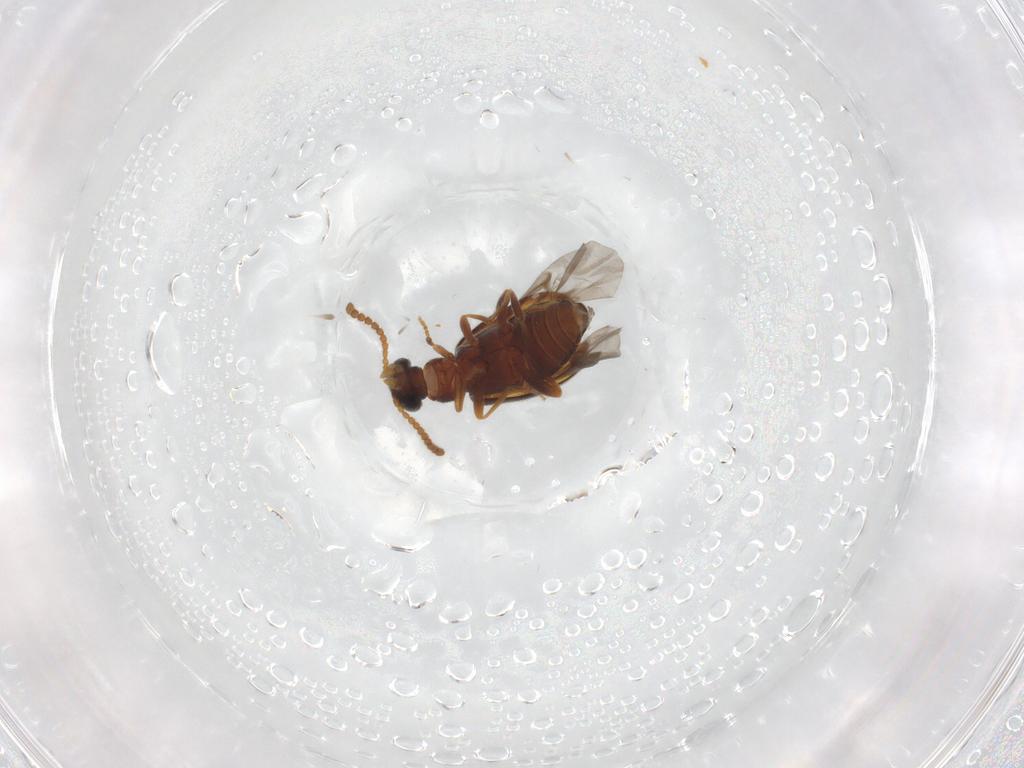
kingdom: Animalia
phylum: Arthropoda
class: Insecta
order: Coleoptera
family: Aderidae
